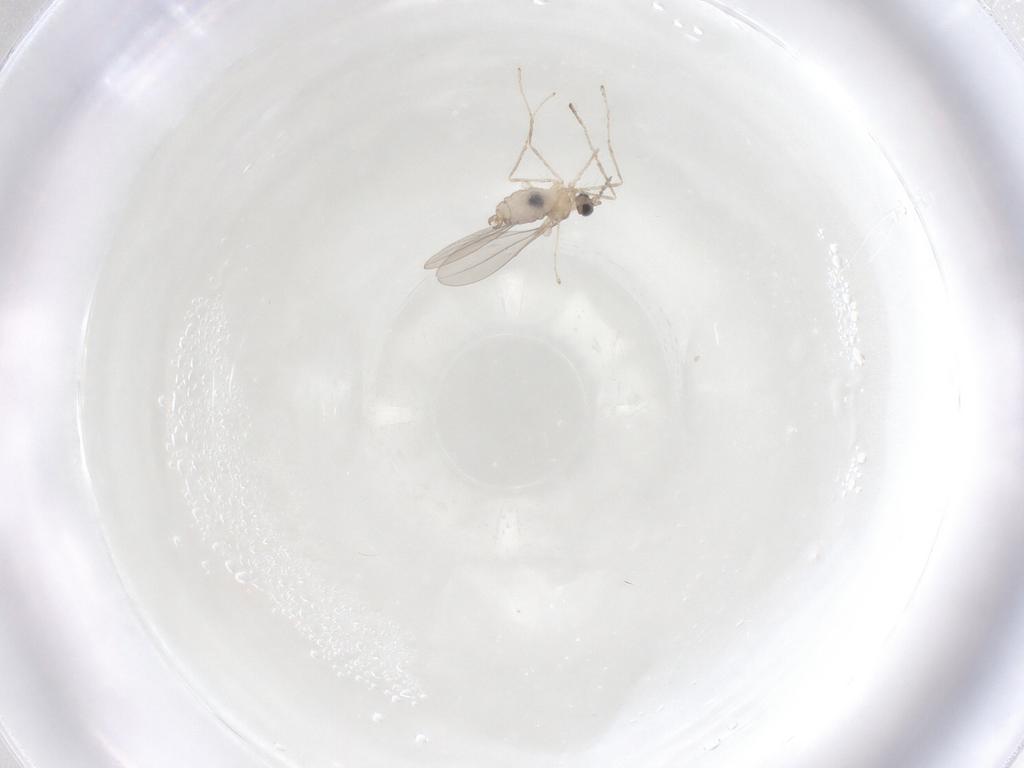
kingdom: Animalia
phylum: Arthropoda
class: Insecta
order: Diptera
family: Cecidomyiidae
